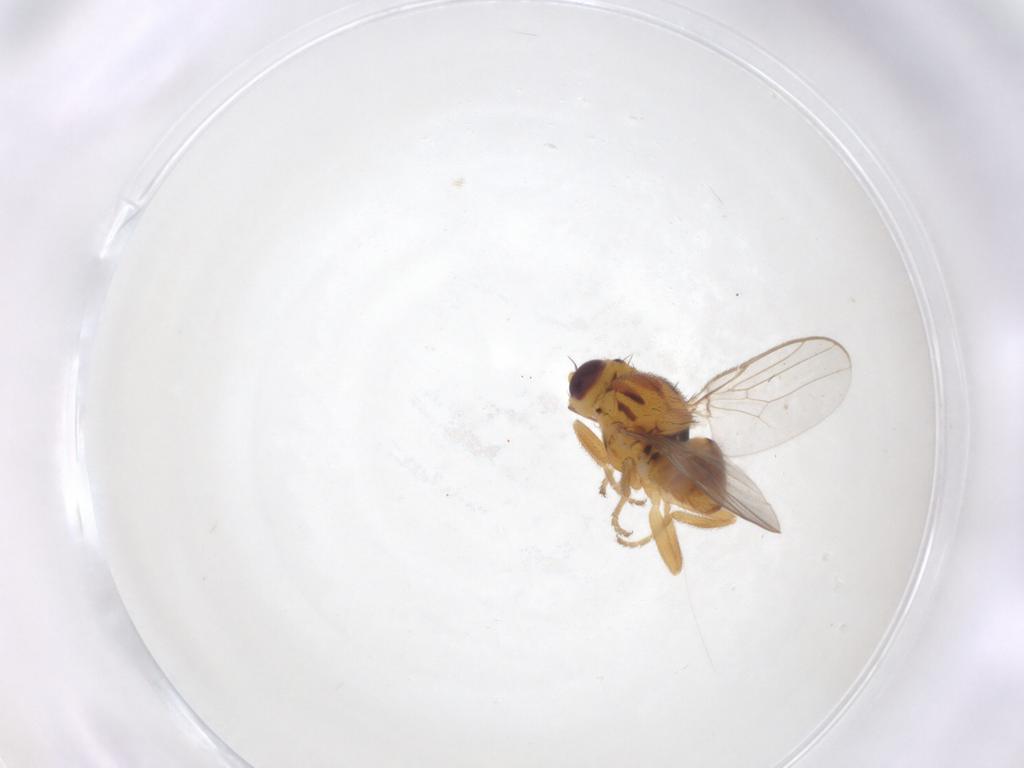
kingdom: Animalia
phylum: Arthropoda
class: Insecta
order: Diptera
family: Chloropidae
